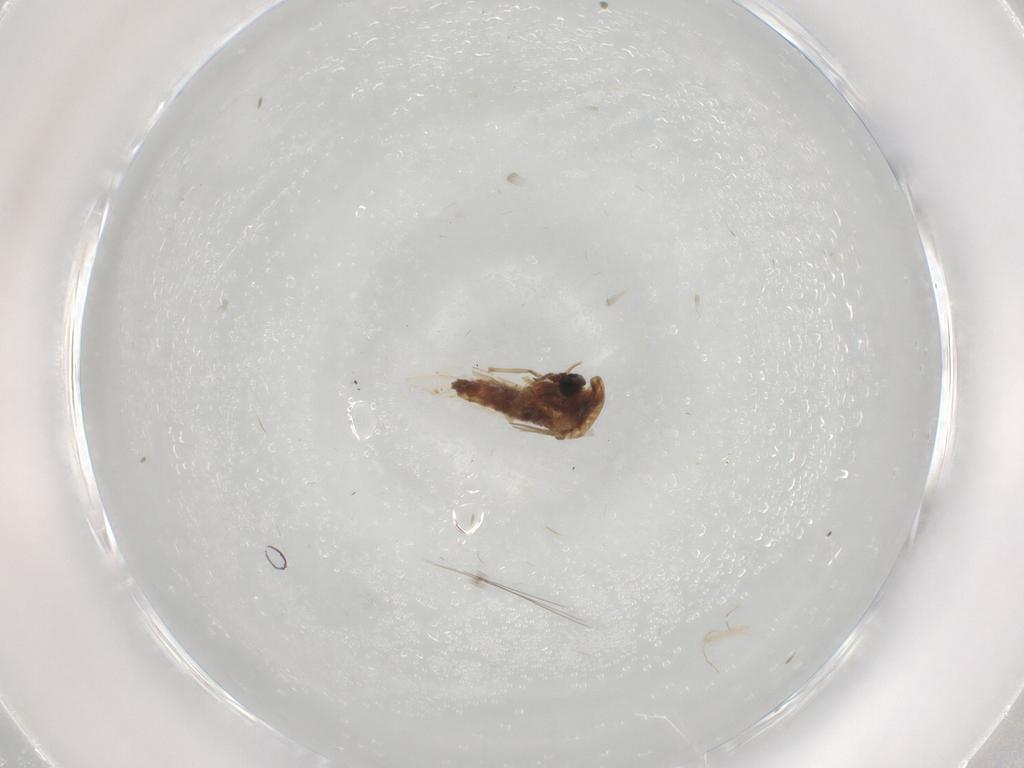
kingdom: Animalia
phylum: Arthropoda
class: Insecta
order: Diptera
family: Chironomidae
